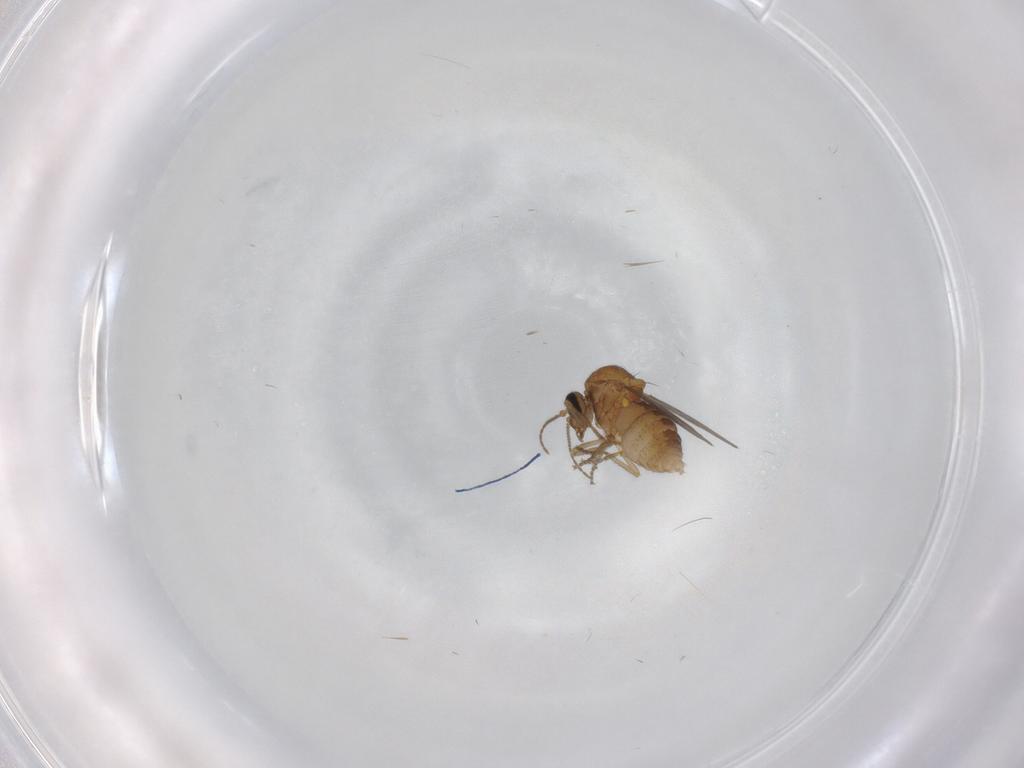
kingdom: Animalia
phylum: Arthropoda
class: Insecta
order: Diptera
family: Ceratopogonidae
